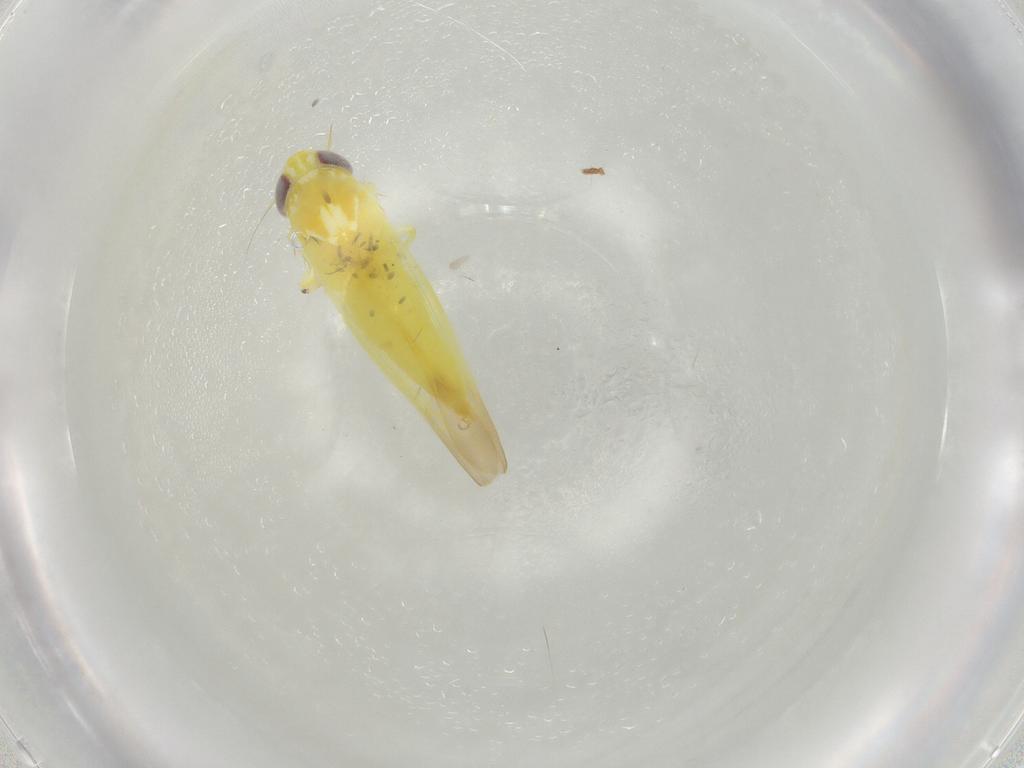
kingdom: Animalia
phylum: Arthropoda
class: Insecta
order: Hemiptera
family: Cicadellidae
